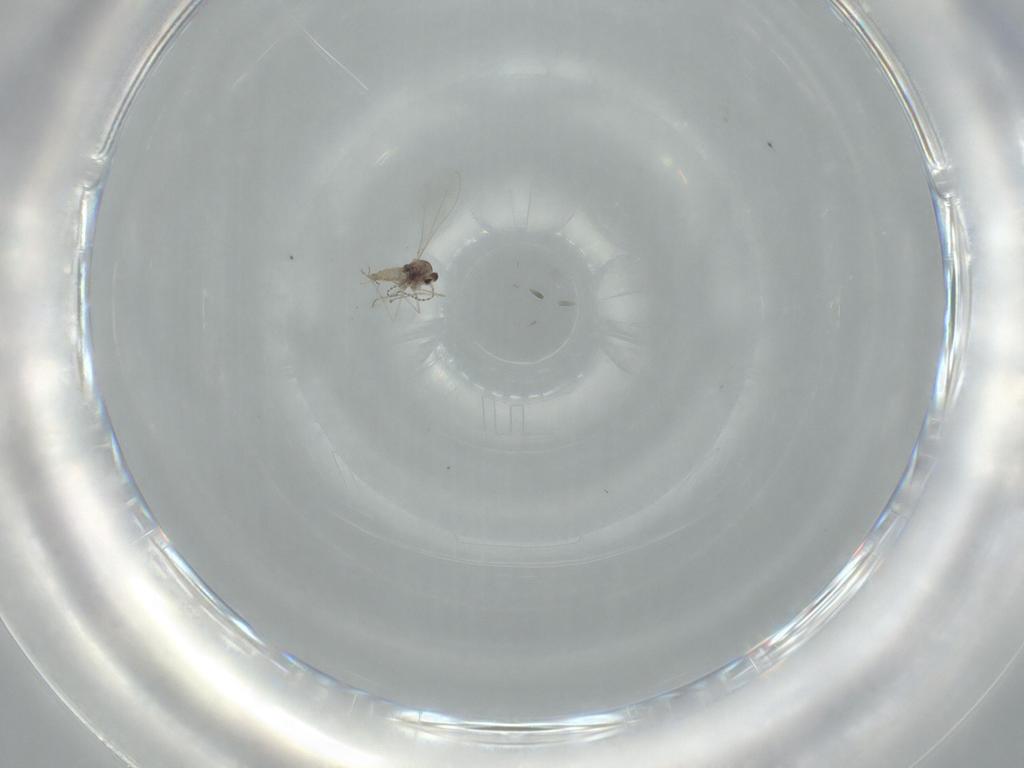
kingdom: Animalia
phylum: Arthropoda
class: Insecta
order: Diptera
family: Cecidomyiidae
